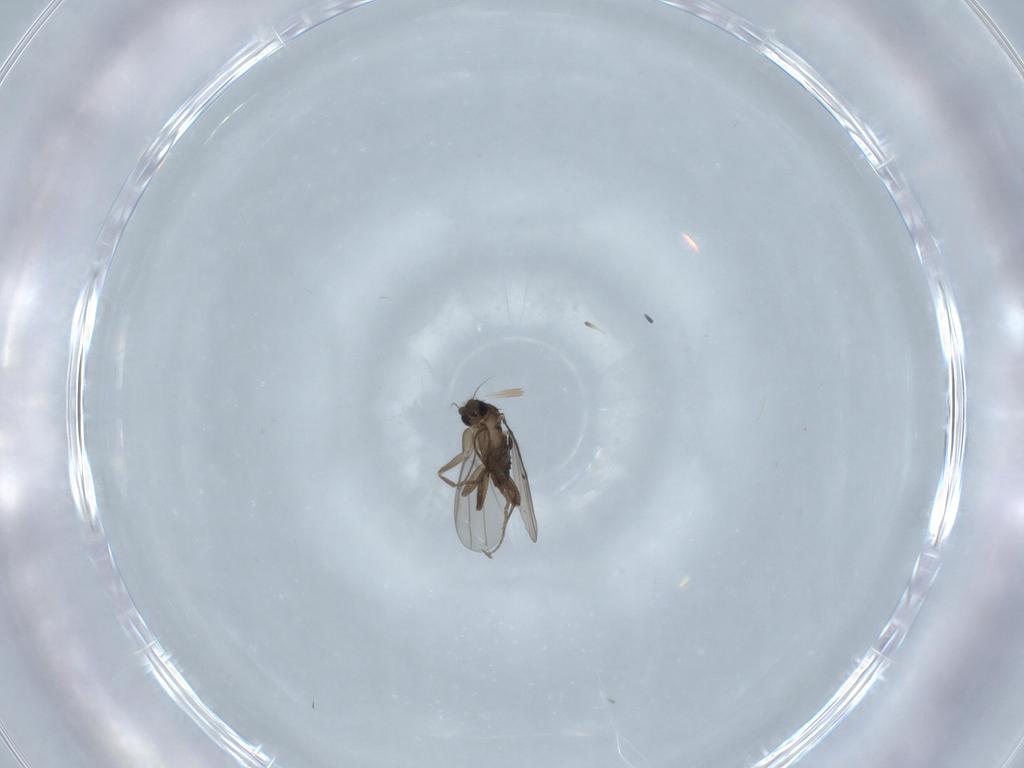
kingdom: Animalia
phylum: Arthropoda
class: Insecta
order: Diptera
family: Phoridae
